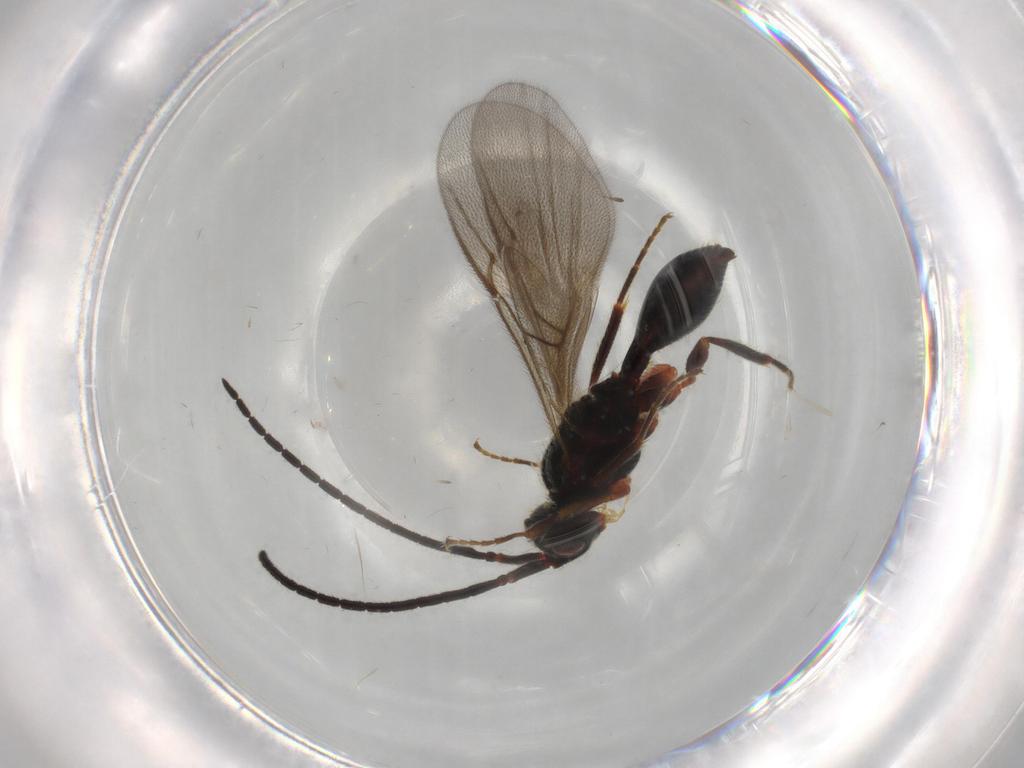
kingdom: Animalia
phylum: Arthropoda
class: Insecta
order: Hymenoptera
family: Diapriidae
